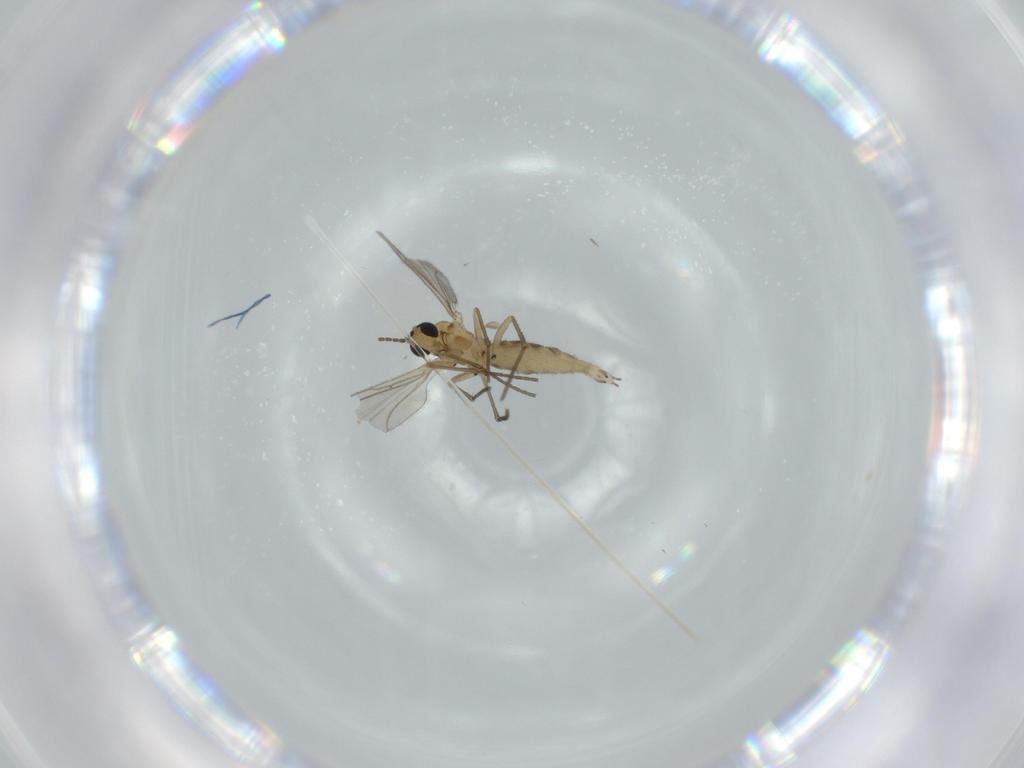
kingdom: Animalia
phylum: Arthropoda
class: Insecta
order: Diptera
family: Sciaridae
